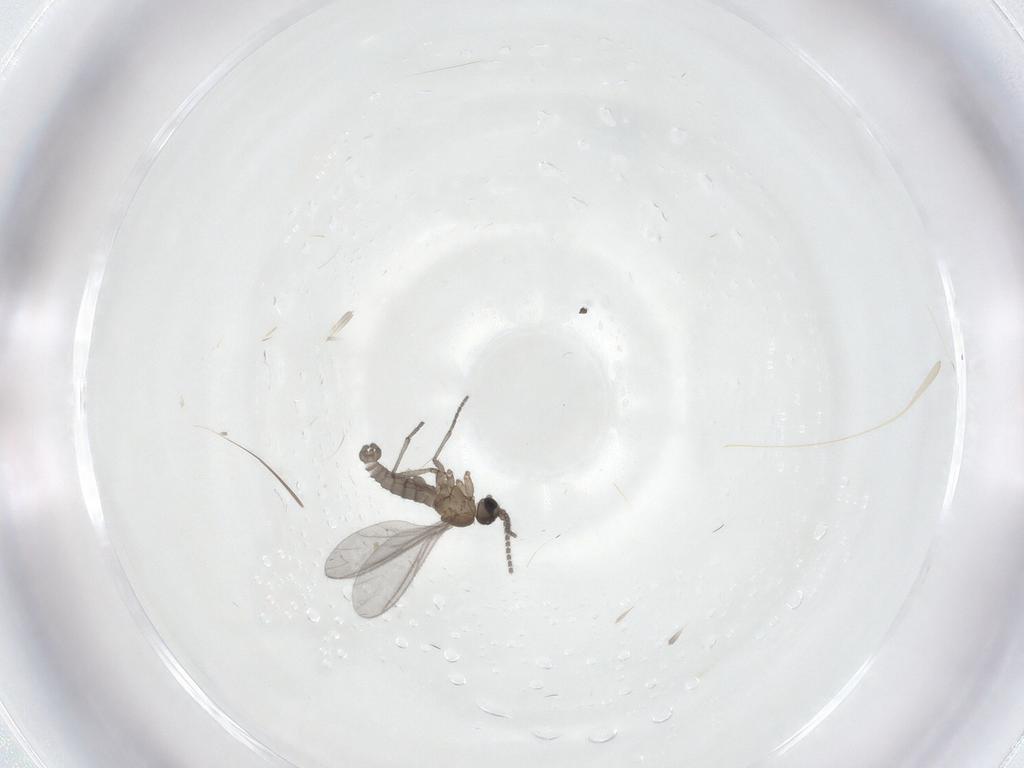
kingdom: Animalia
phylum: Arthropoda
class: Insecta
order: Diptera
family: Sciaridae
